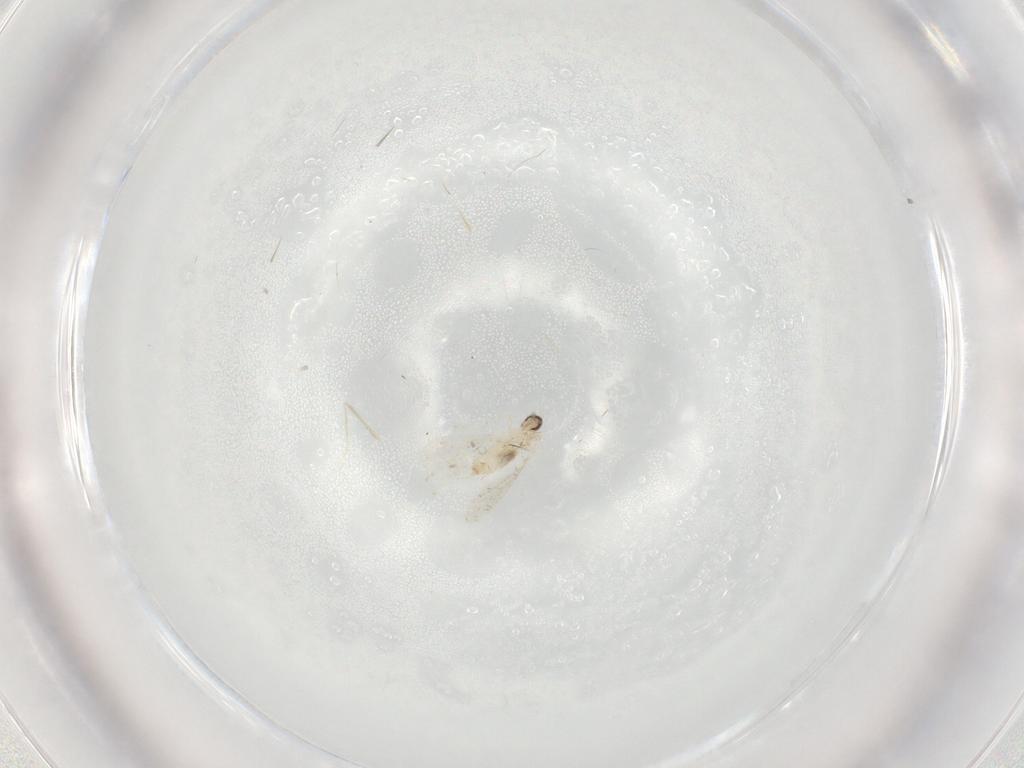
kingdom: Animalia
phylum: Arthropoda
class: Insecta
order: Diptera
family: Cecidomyiidae
